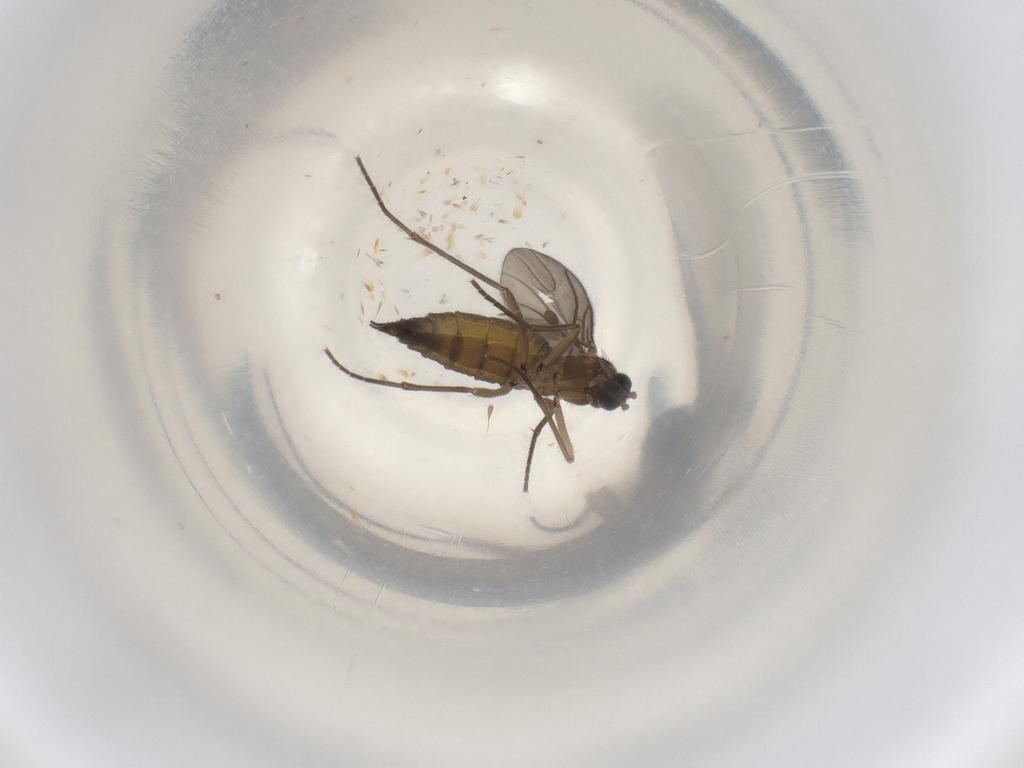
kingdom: Animalia
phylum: Arthropoda
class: Insecta
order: Diptera
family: Sciaridae
